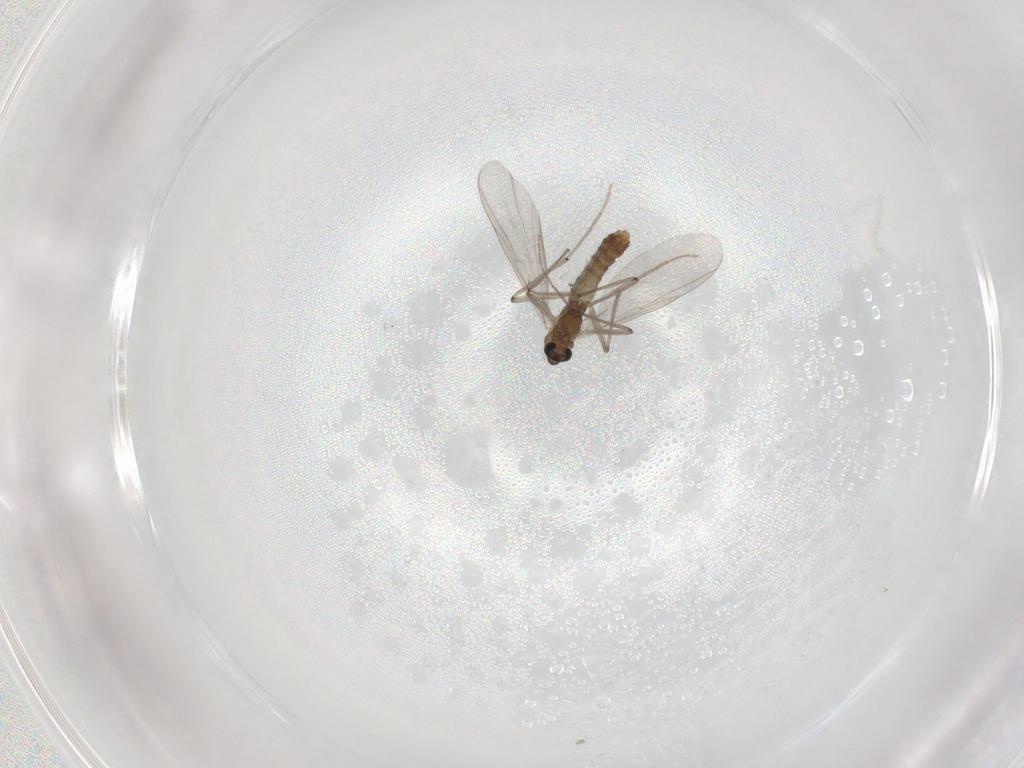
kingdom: Animalia
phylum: Arthropoda
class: Insecta
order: Diptera
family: Chironomidae
